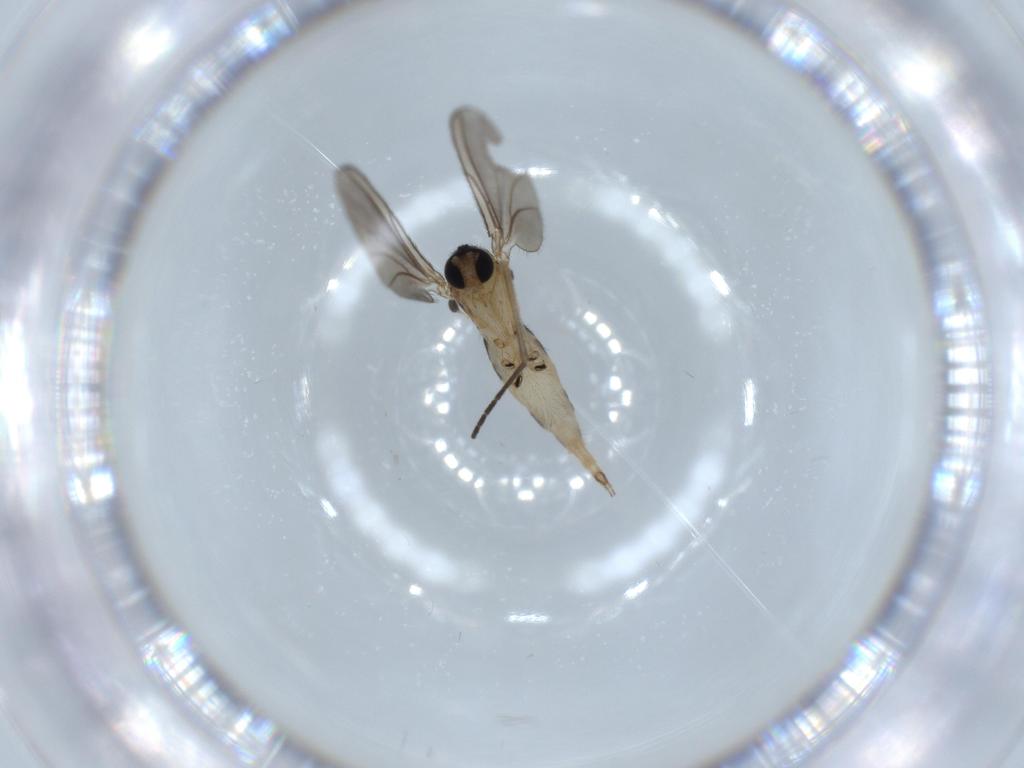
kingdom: Animalia
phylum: Arthropoda
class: Insecta
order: Diptera
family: Sciaridae
